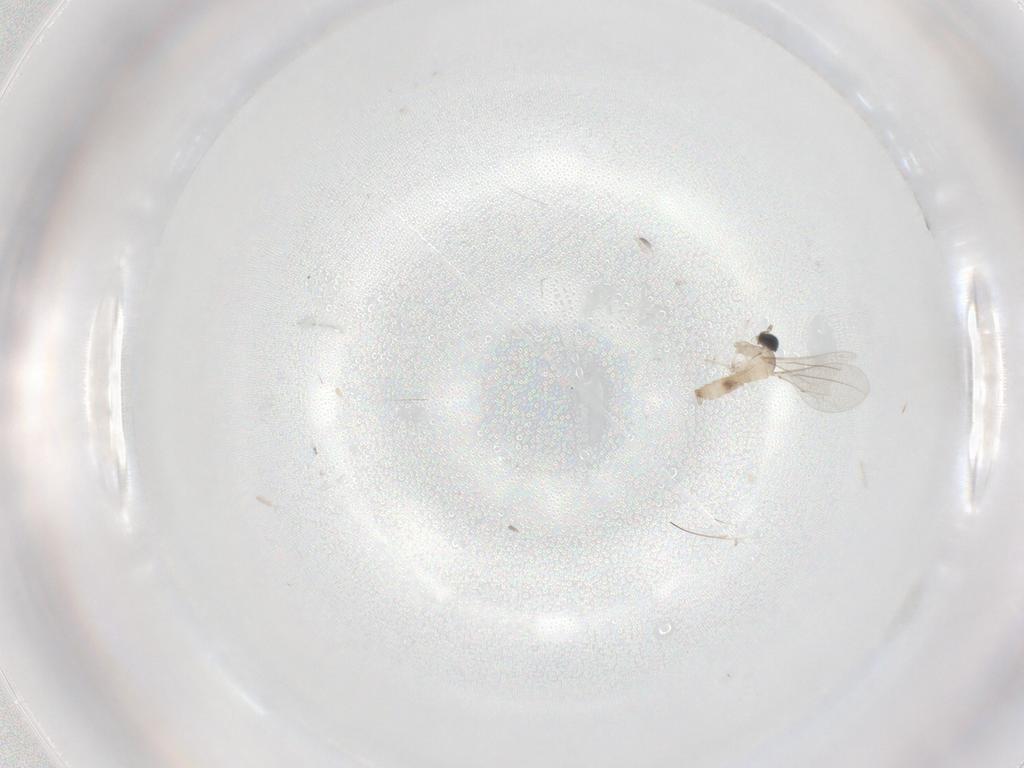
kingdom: Animalia
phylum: Arthropoda
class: Insecta
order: Diptera
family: Cecidomyiidae
